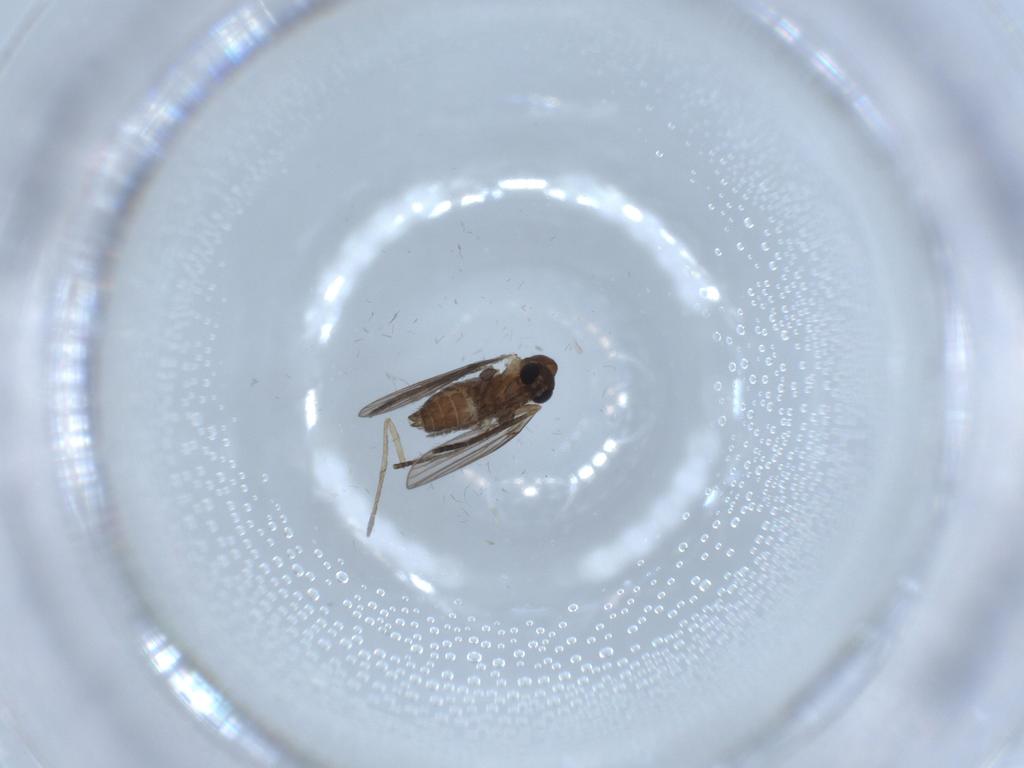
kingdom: Animalia
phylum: Arthropoda
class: Insecta
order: Diptera
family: Psychodidae
